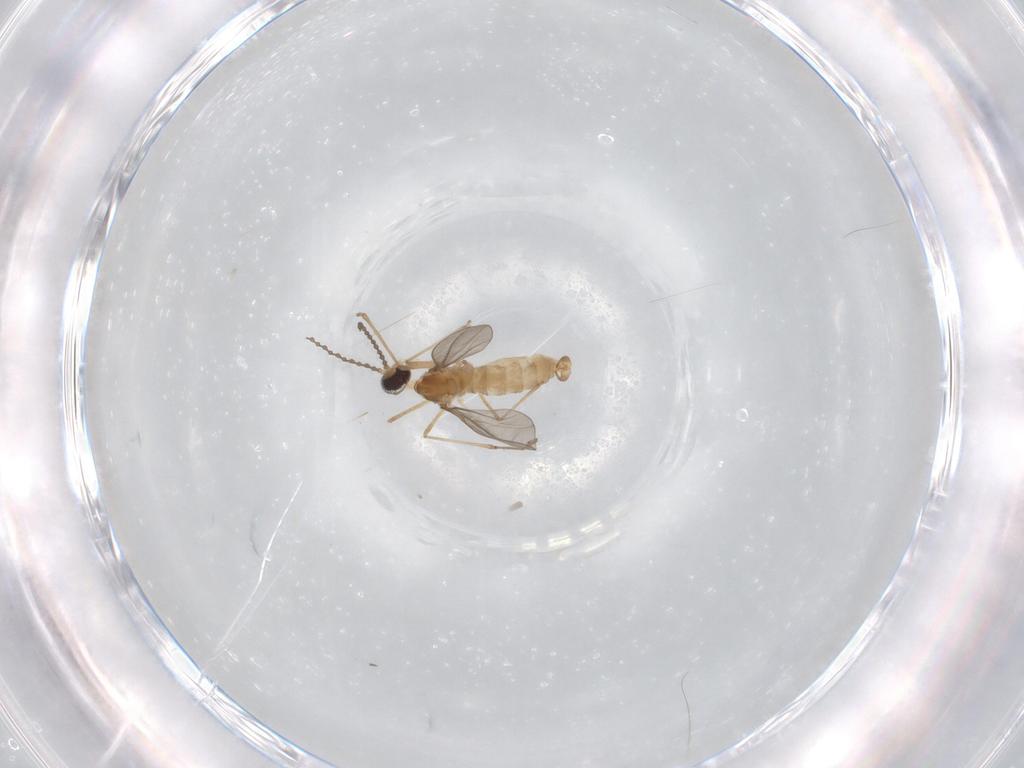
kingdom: Animalia
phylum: Arthropoda
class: Insecta
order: Diptera
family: Cecidomyiidae
